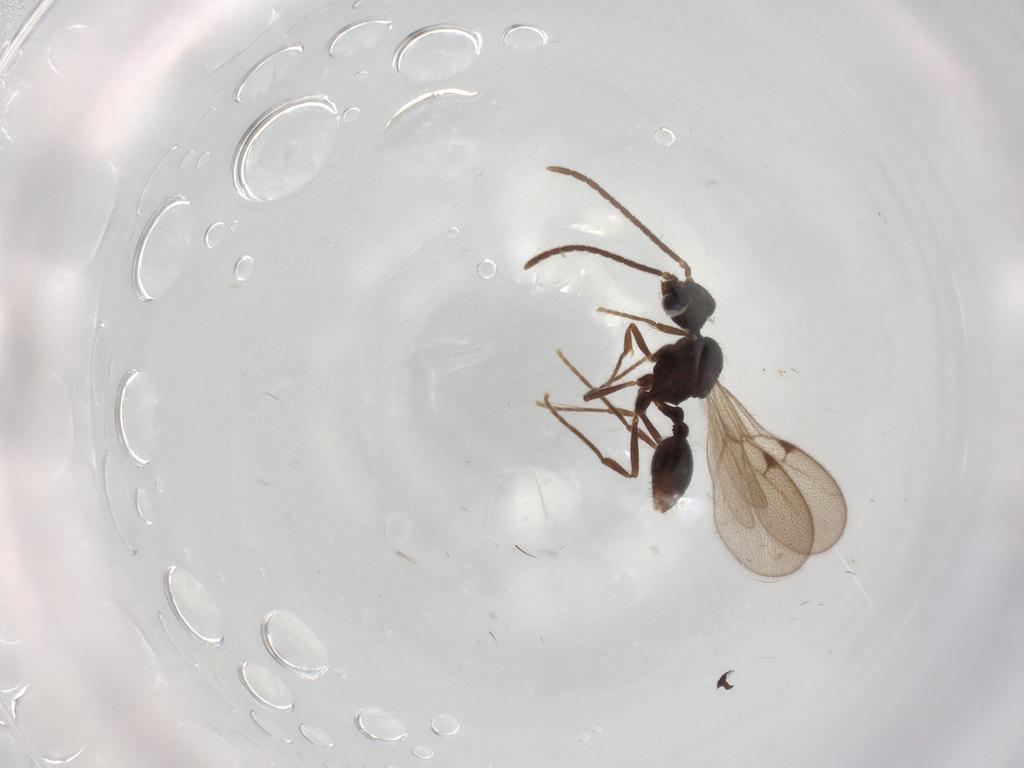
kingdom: Animalia
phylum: Arthropoda
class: Insecta
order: Hymenoptera
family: Formicidae
